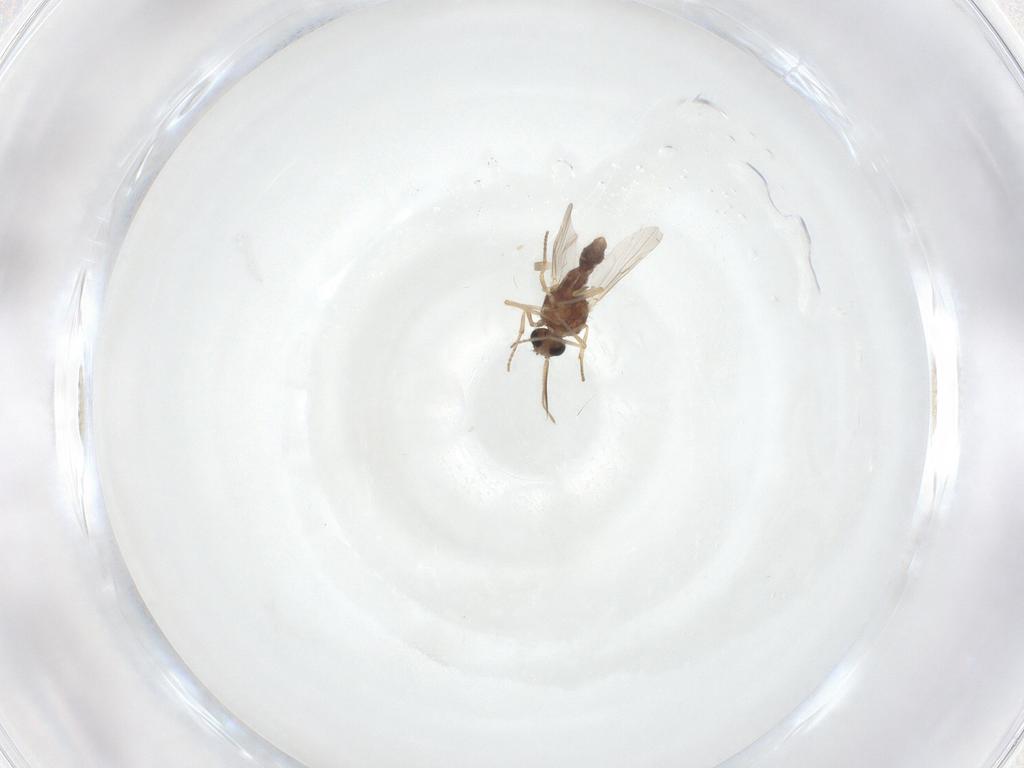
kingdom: Animalia
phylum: Arthropoda
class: Insecta
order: Diptera
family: Ceratopogonidae
